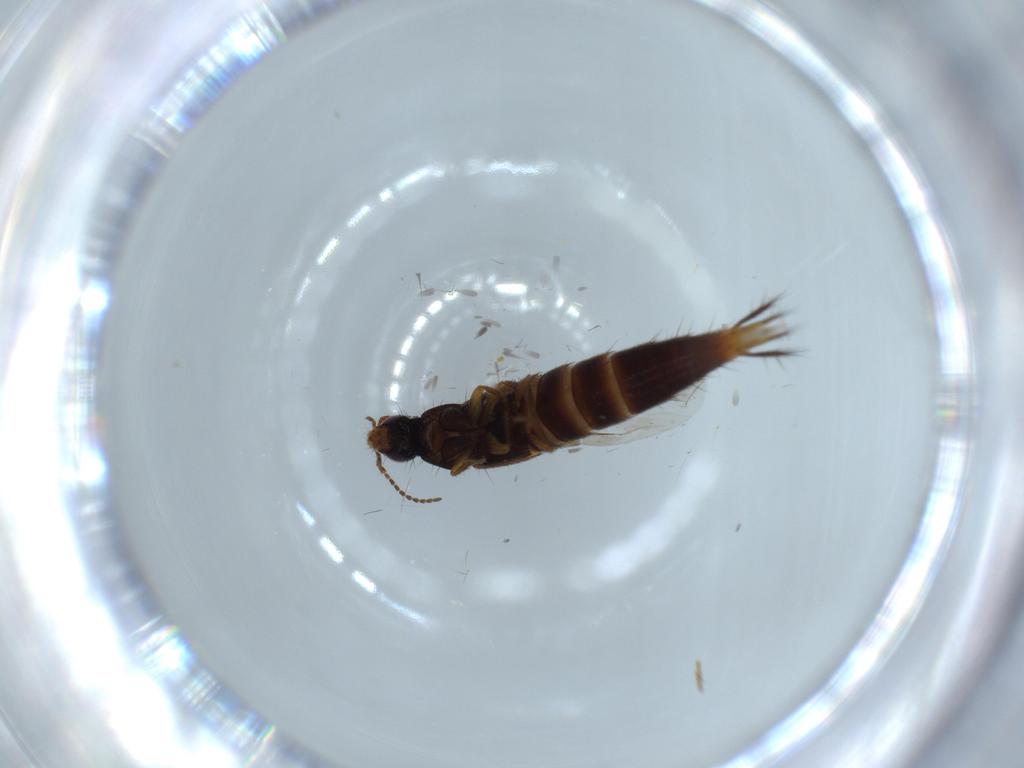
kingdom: Animalia
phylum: Arthropoda
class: Insecta
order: Coleoptera
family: Staphylinidae
